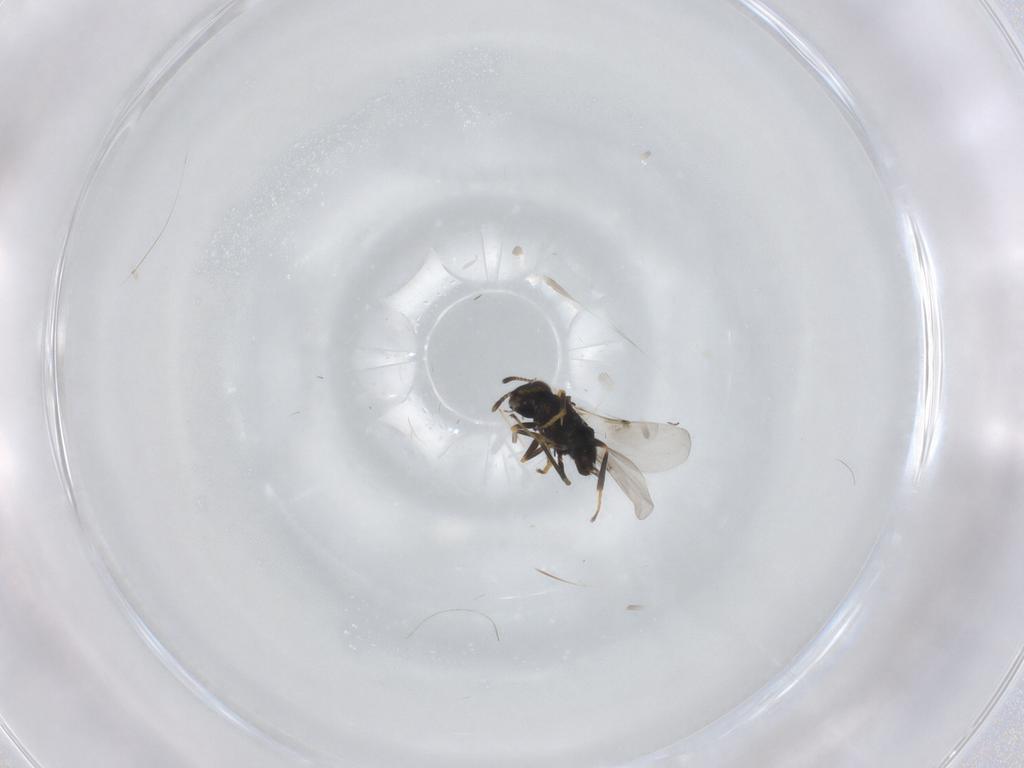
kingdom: Animalia
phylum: Arthropoda
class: Insecta
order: Hymenoptera
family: Encyrtidae
